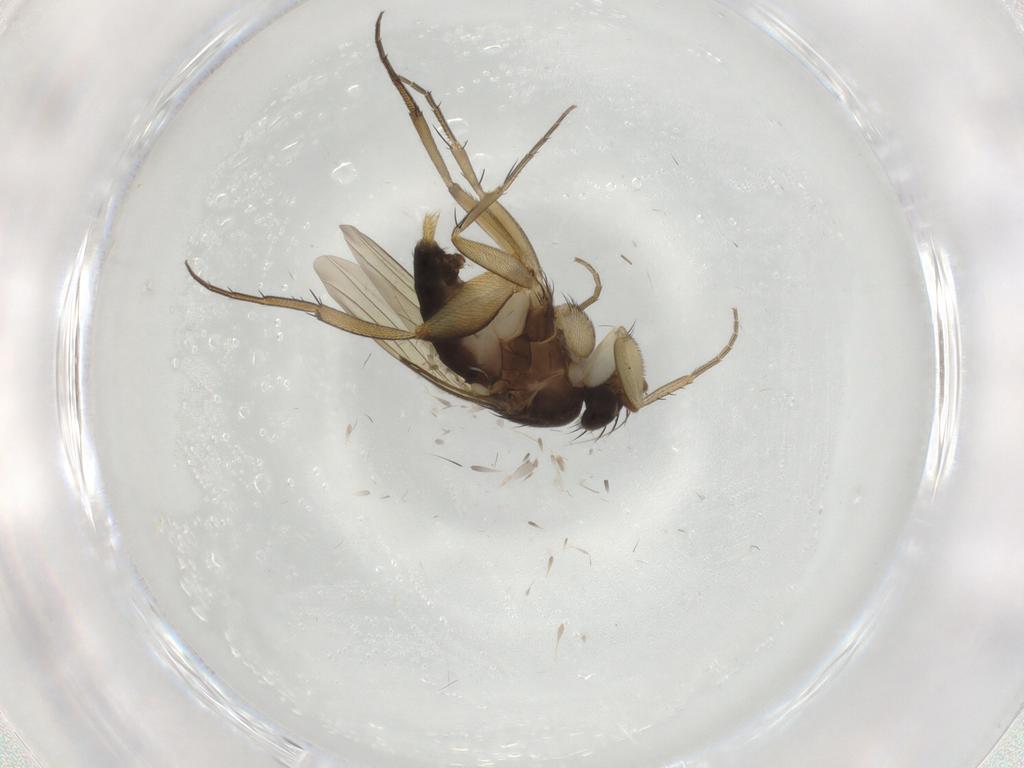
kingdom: Animalia
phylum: Arthropoda
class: Insecta
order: Diptera
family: Phoridae
